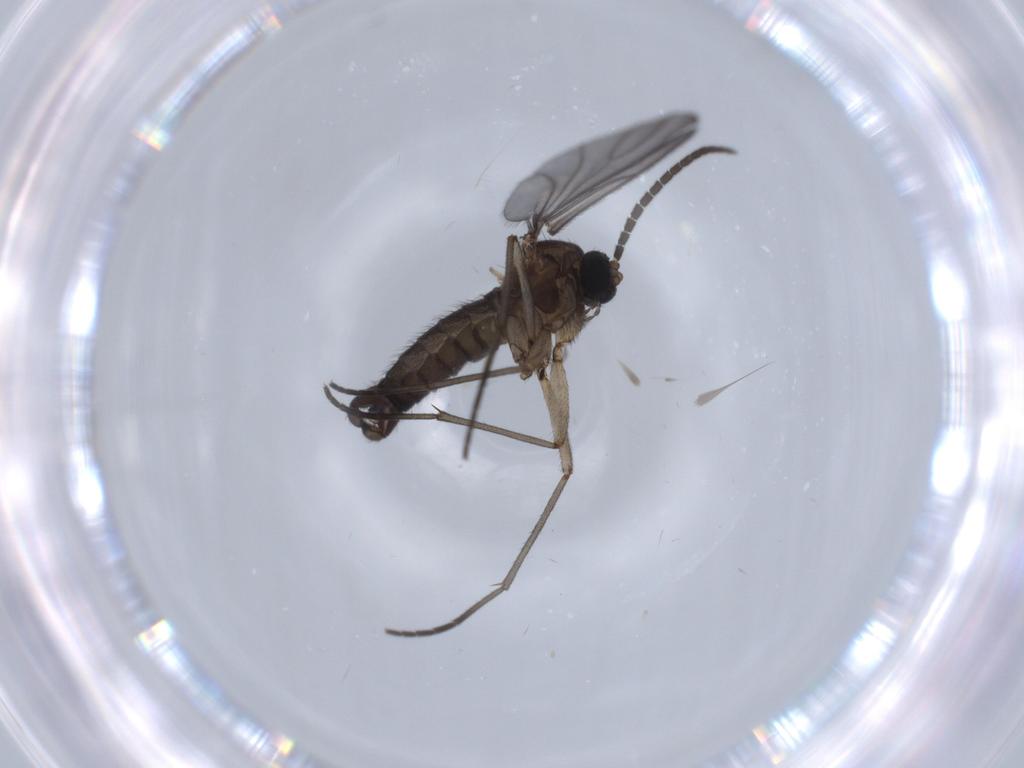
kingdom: Animalia
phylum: Arthropoda
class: Insecta
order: Diptera
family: Sciaridae
